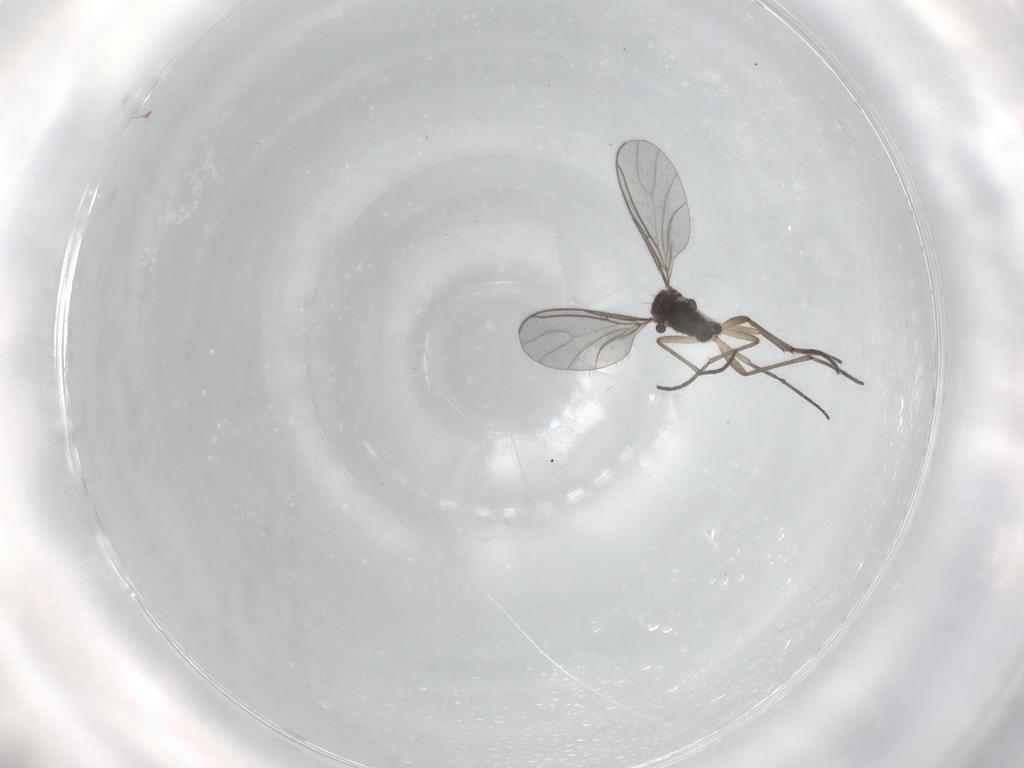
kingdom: Animalia
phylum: Arthropoda
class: Insecta
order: Diptera
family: Sciaridae
